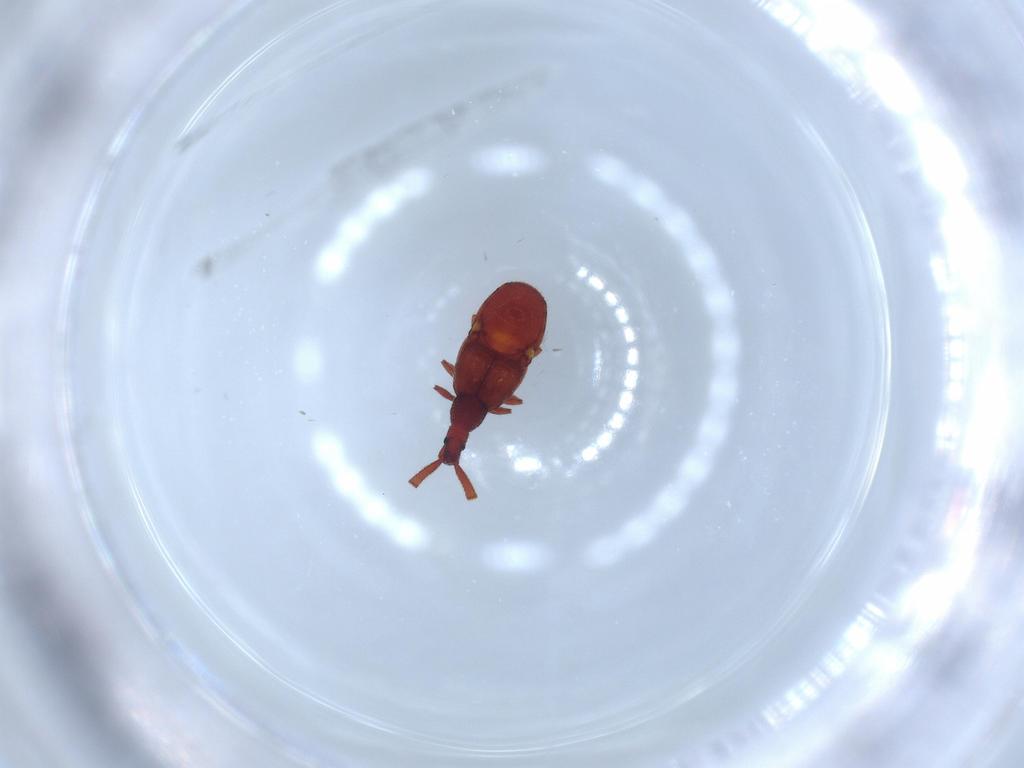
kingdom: Animalia
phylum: Arthropoda
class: Insecta
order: Coleoptera
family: Staphylinidae
